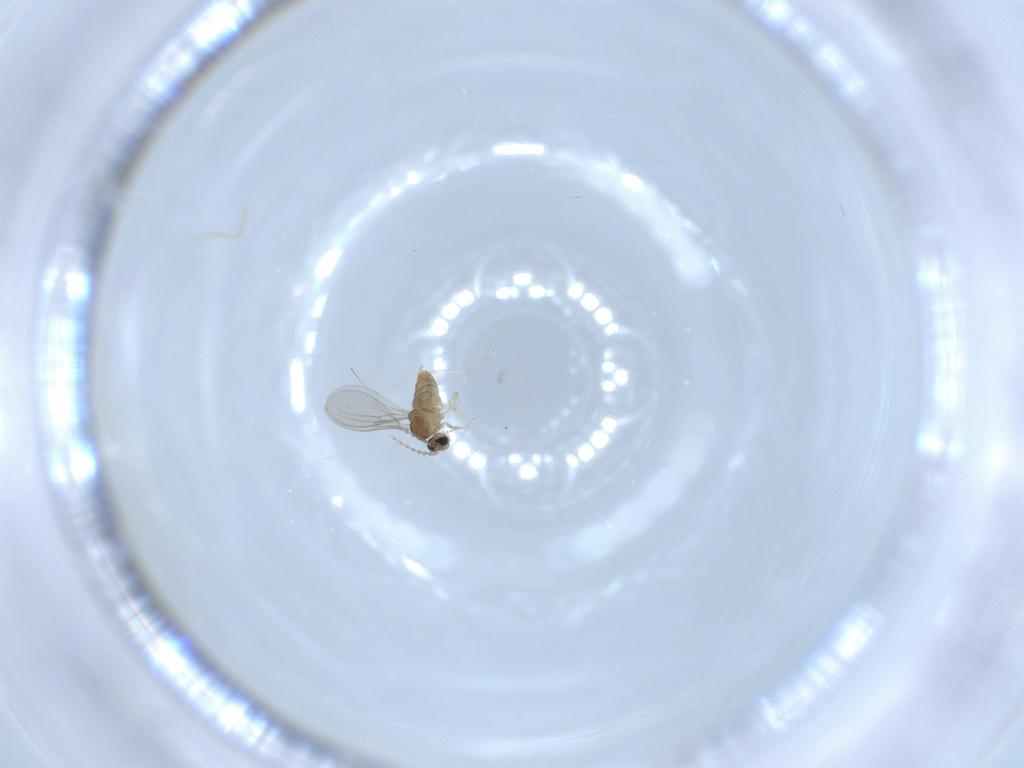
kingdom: Animalia
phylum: Arthropoda
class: Insecta
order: Diptera
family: Cecidomyiidae
